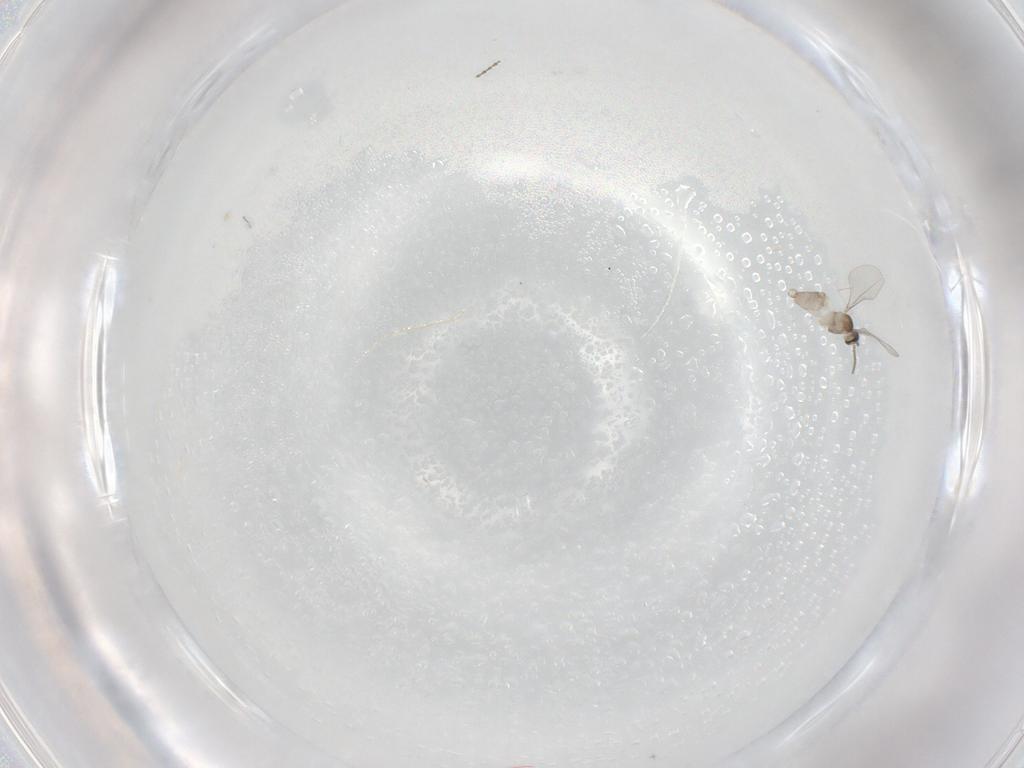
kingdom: Animalia
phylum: Arthropoda
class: Insecta
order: Diptera
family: Cecidomyiidae
